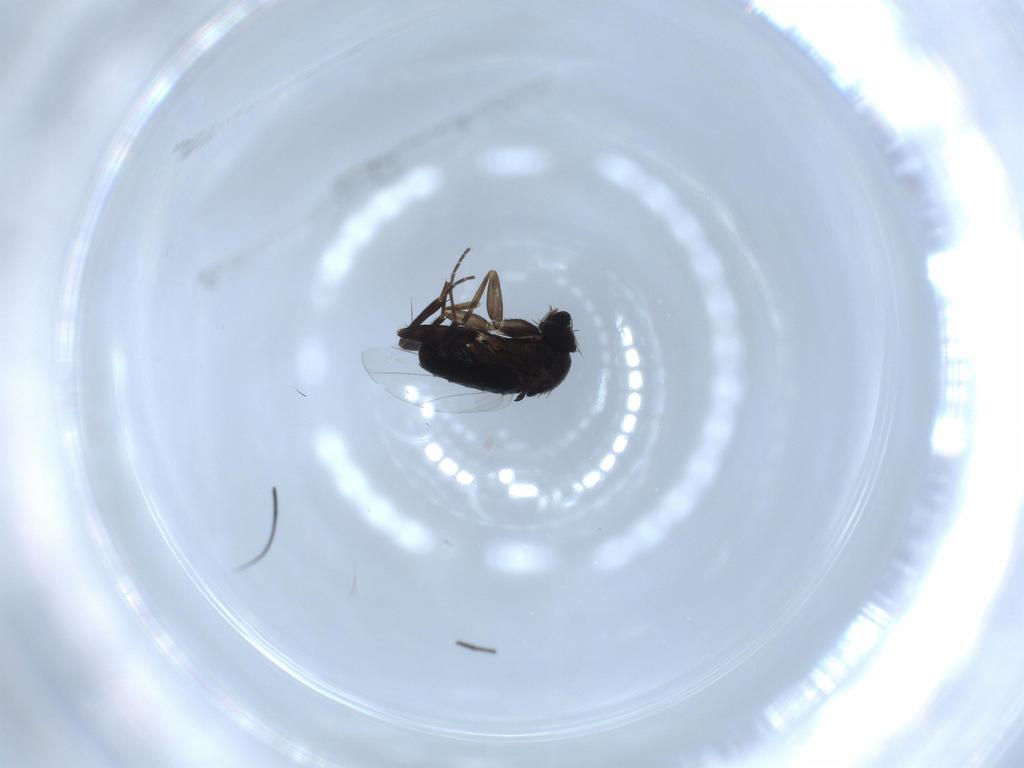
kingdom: Animalia
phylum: Arthropoda
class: Insecta
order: Diptera
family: Phoridae
